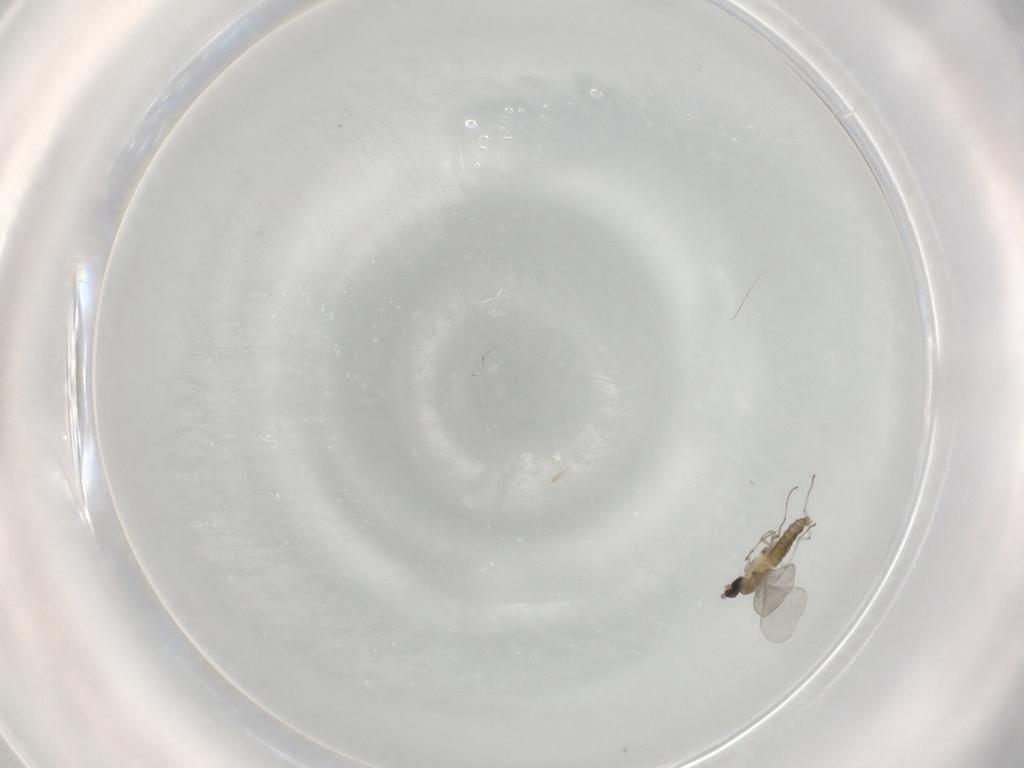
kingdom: Animalia
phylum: Arthropoda
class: Insecta
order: Diptera
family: Cecidomyiidae
